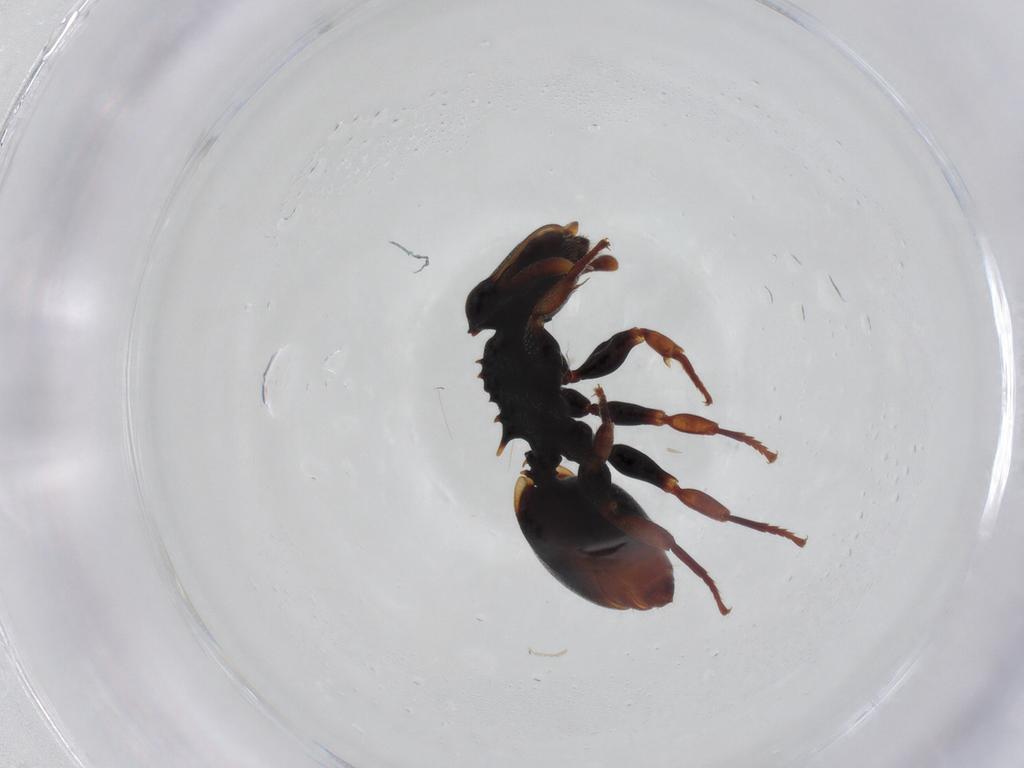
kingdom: Animalia
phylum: Arthropoda
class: Insecta
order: Hymenoptera
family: Formicidae
